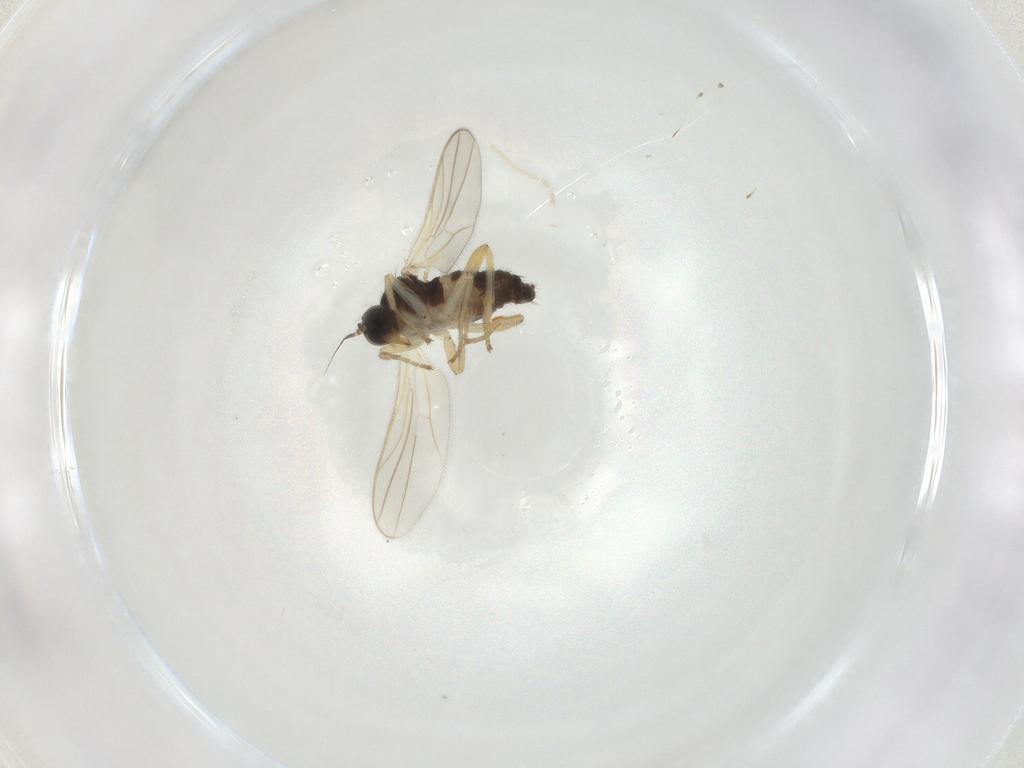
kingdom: Animalia
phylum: Arthropoda
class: Insecta
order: Diptera
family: Ceratopogonidae
